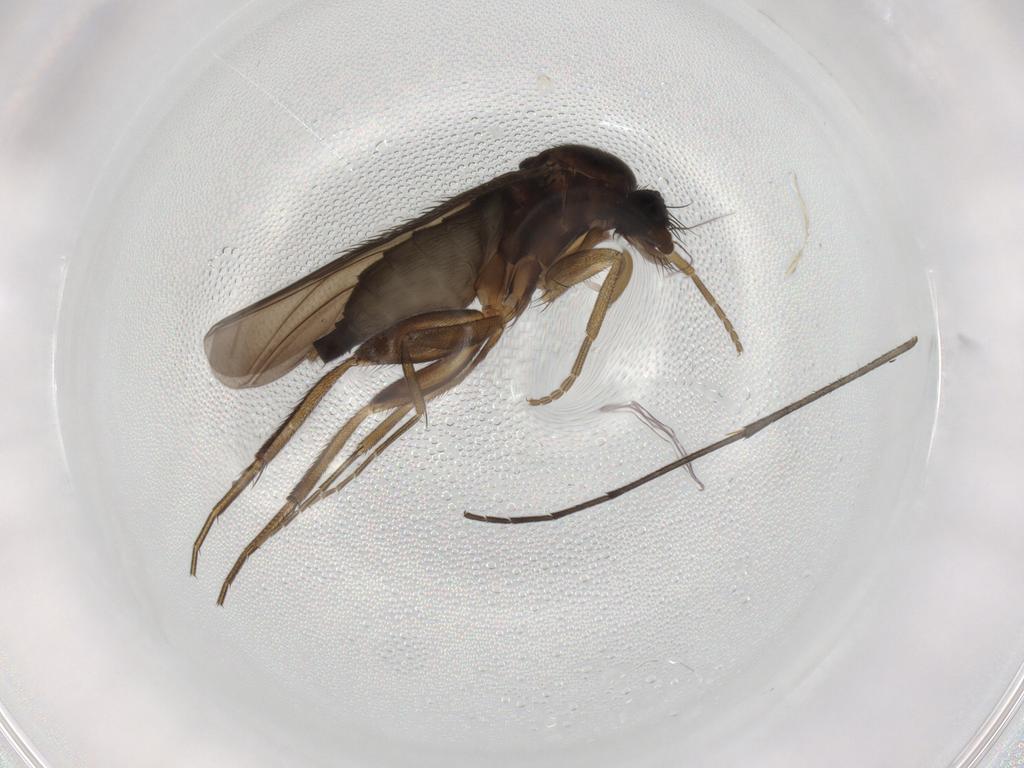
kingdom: Animalia
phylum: Arthropoda
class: Insecta
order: Diptera
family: Phoridae
